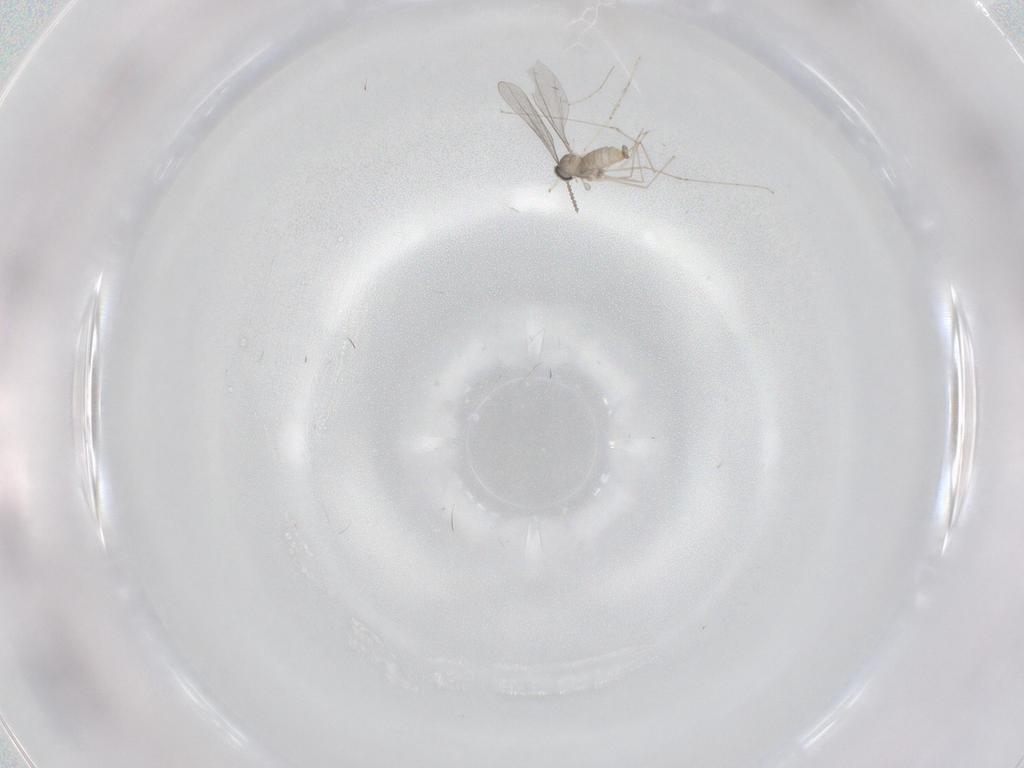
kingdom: Animalia
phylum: Arthropoda
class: Insecta
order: Diptera
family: Cecidomyiidae
